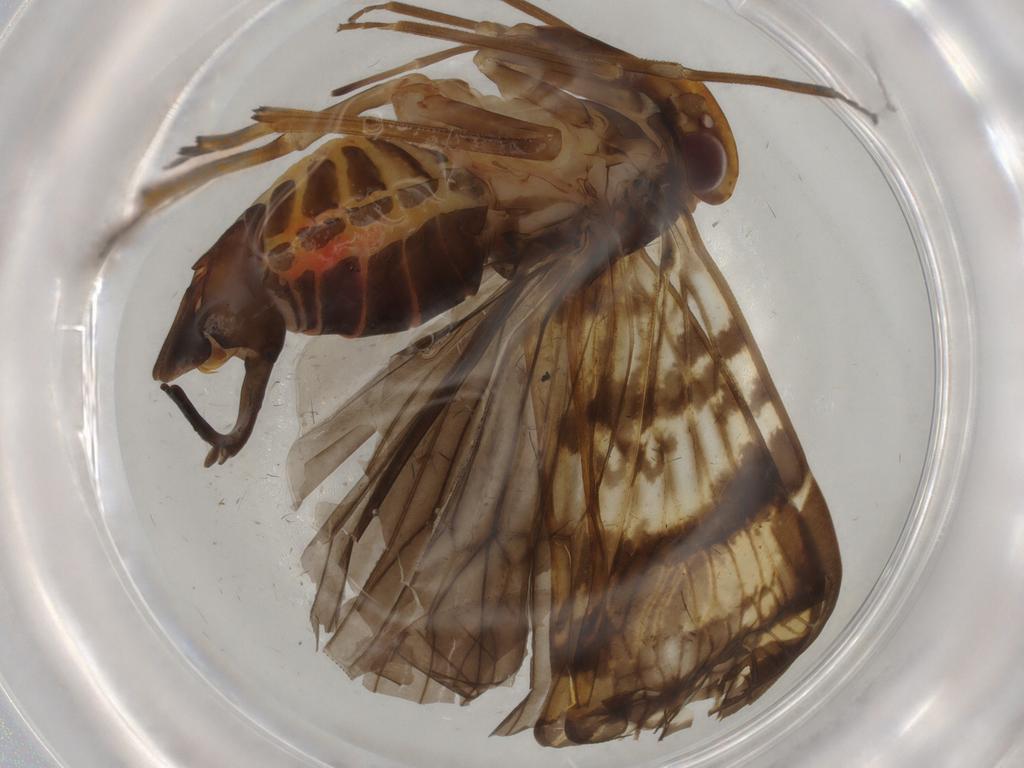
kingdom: Animalia
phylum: Arthropoda
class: Insecta
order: Hemiptera
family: Cixiidae
